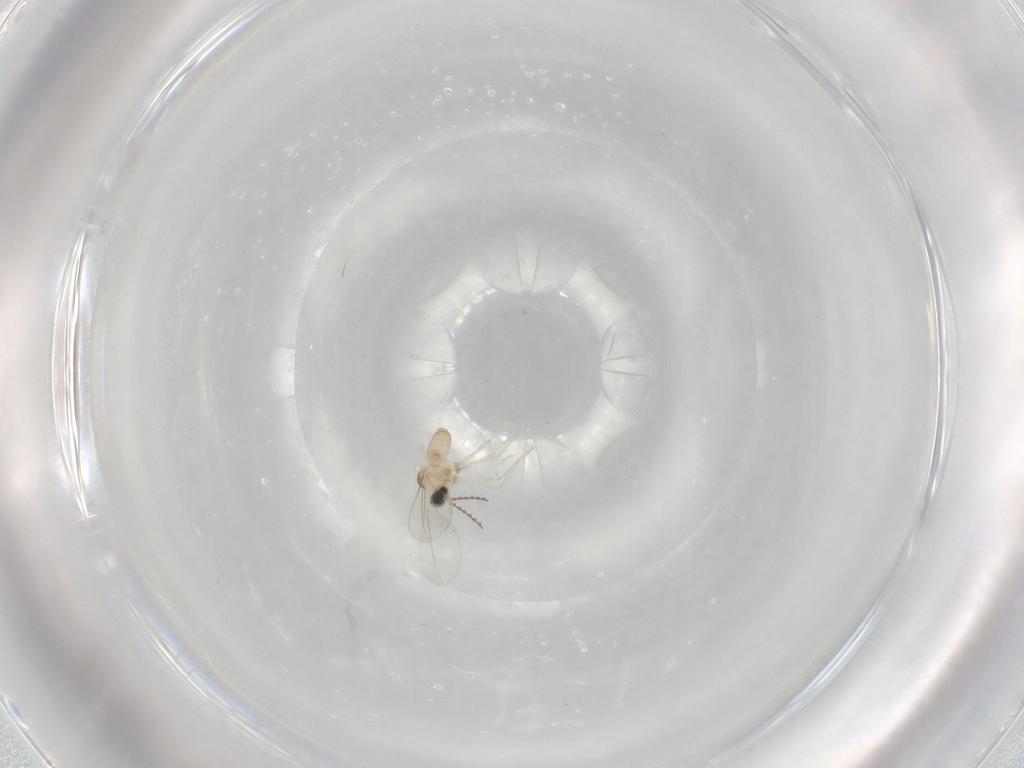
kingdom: Animalia
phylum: Arthropoda
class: Insecta
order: Diptera
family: Cecidomyiidae
